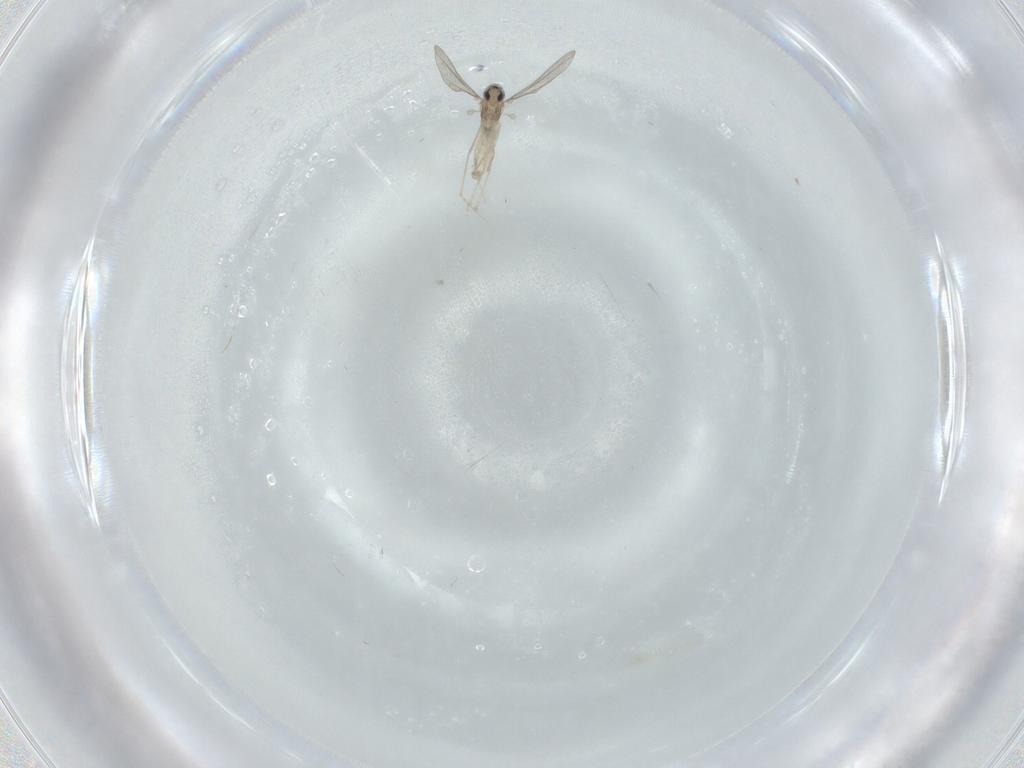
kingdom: Animalia
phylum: Arthropoda
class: Insecta
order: Diptera
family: Cecidomyiidae
